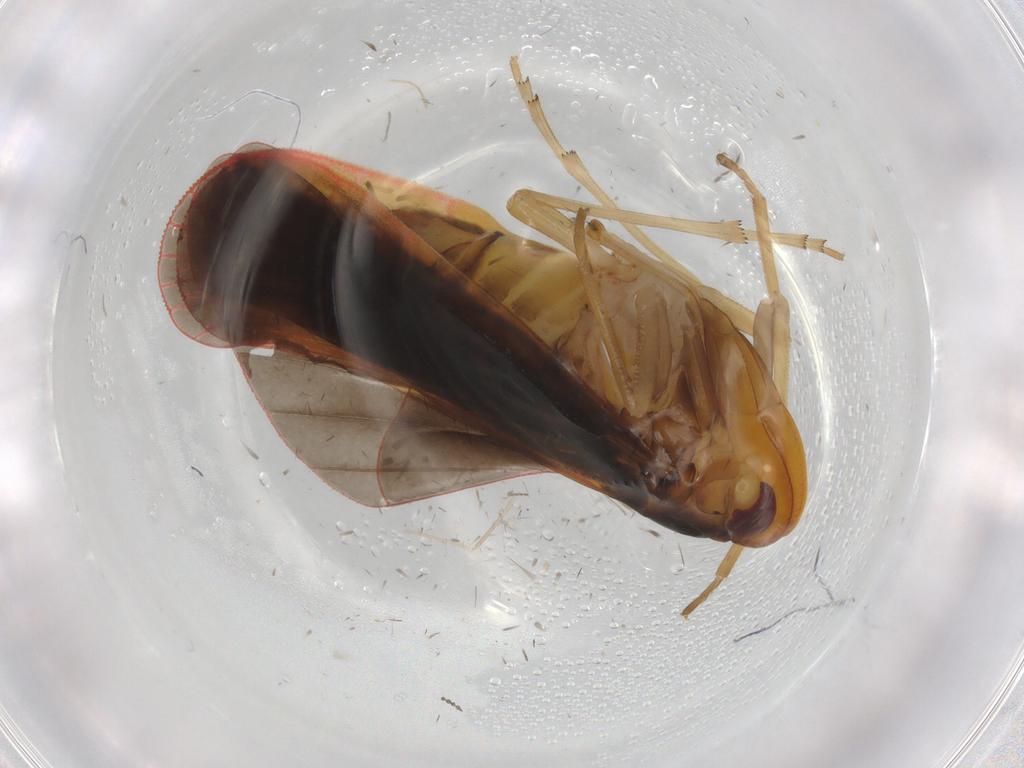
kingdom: Animalia
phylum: Arthropoda
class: Insecta
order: Hemiptera
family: Derbidae
